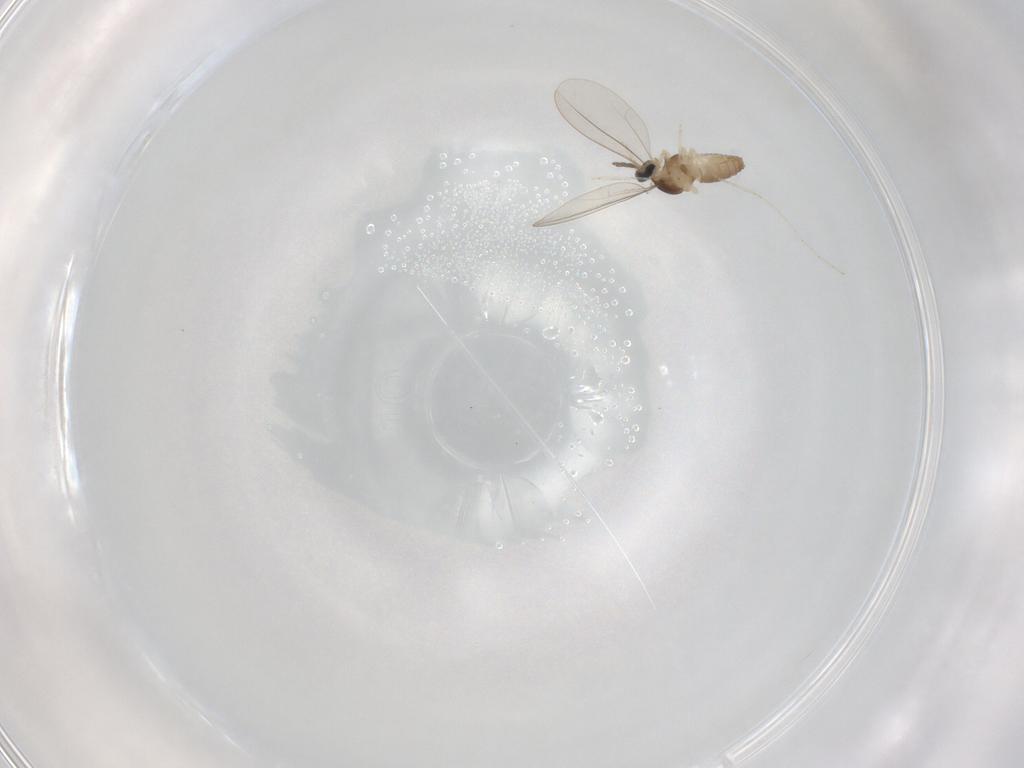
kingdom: Animalia
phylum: Arthropoda
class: Insecta
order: Diptera
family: Cecidomyiidae
